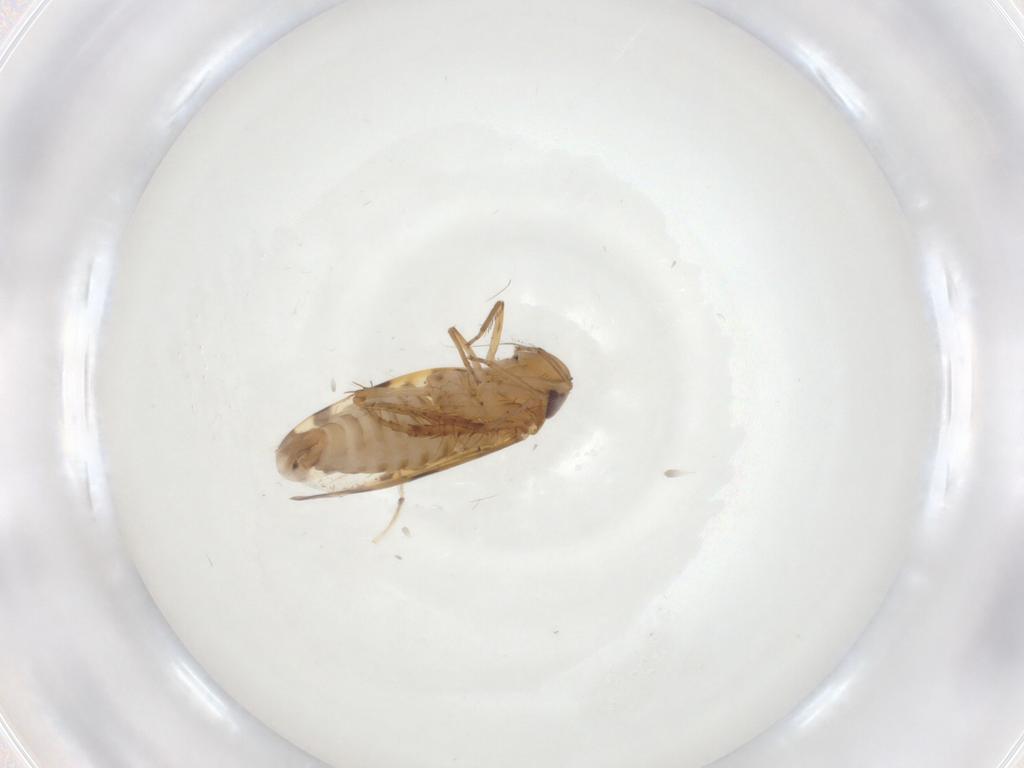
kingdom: Animalia
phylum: Arthropoda
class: Insecta
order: Hemiptera
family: Cicadellidae
